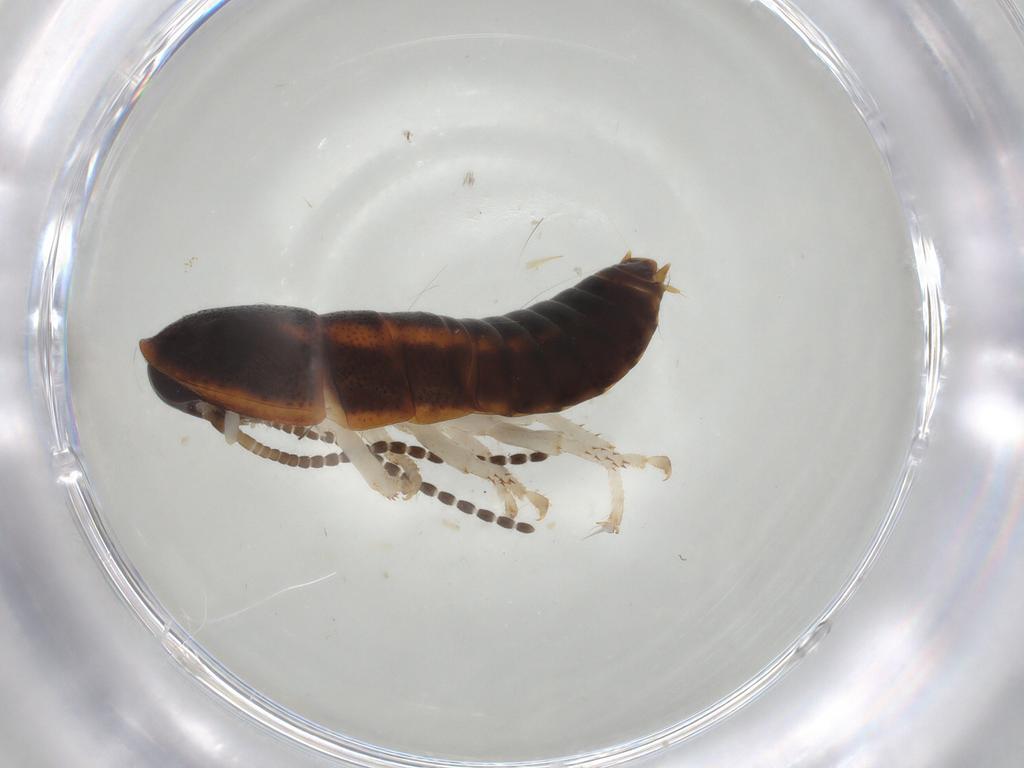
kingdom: Animalia
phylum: Arthropoda
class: Insecta
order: Blattodea
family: Blaberidae
